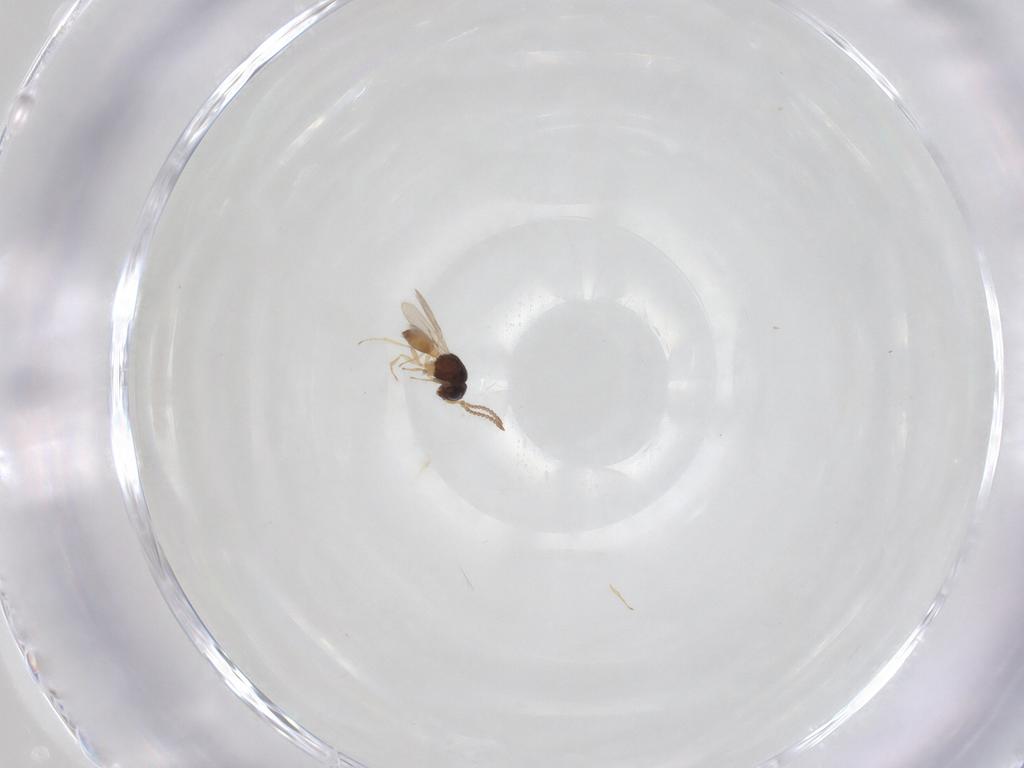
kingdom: Animalia
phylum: Arthropoda
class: Insecta
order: Hymenoptera
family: Scelionidae
